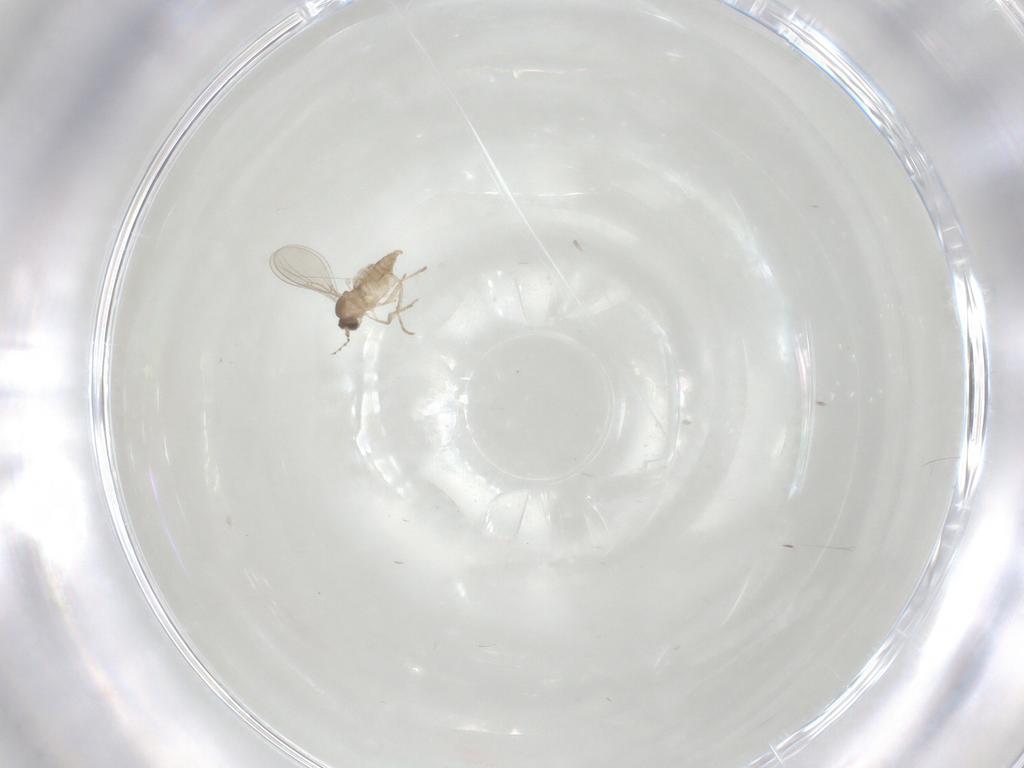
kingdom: Animalia
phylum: Arthropoda
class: Insecta
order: Diptera
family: Cecidomyiidae
